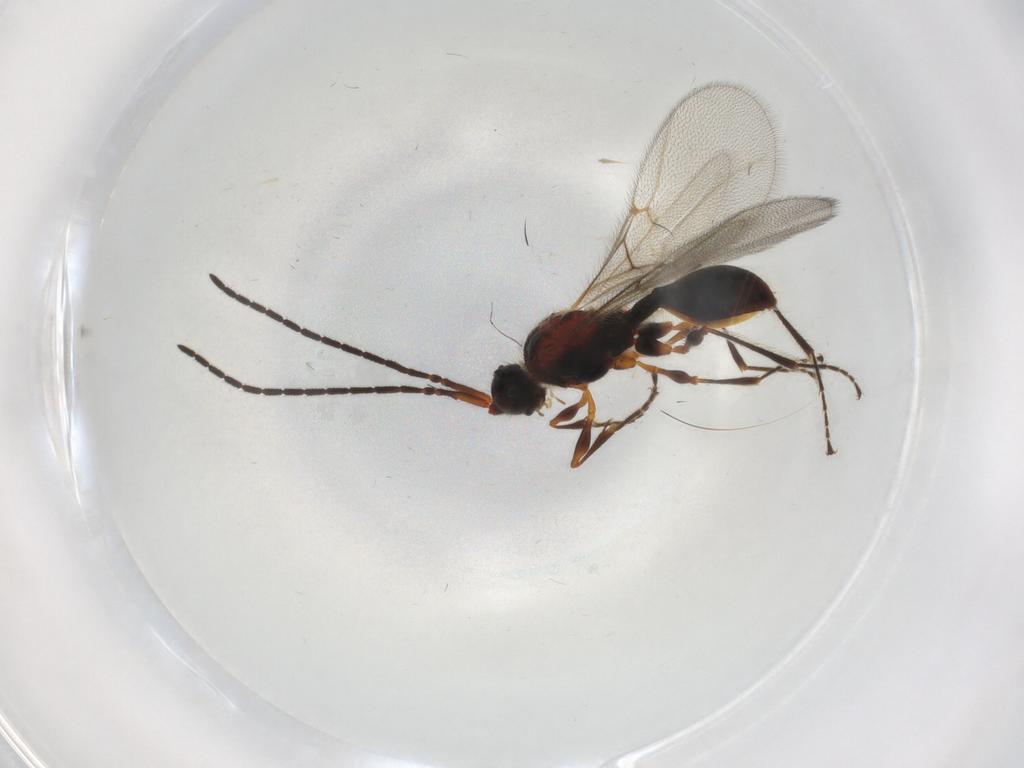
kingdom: Animalia
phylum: Arthropoda
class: Insecta
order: Hymenoptera
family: Diapriidae
